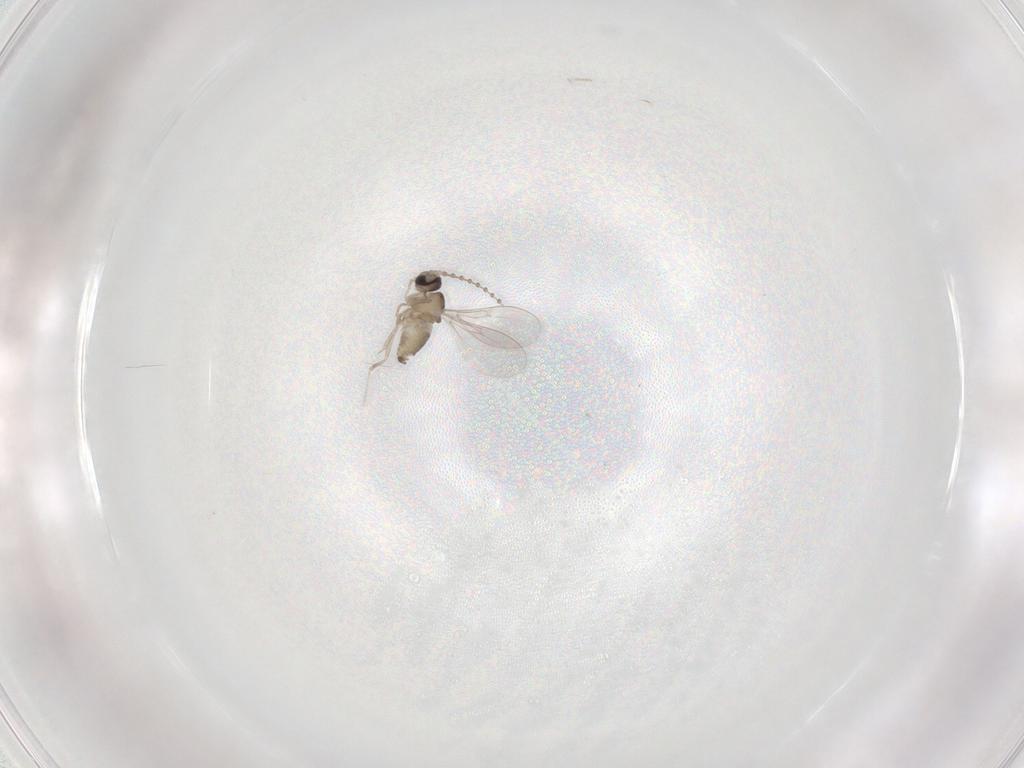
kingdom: Animalia
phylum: Arthropoda
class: Insecta
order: Diptera
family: Cecidomyiidae
